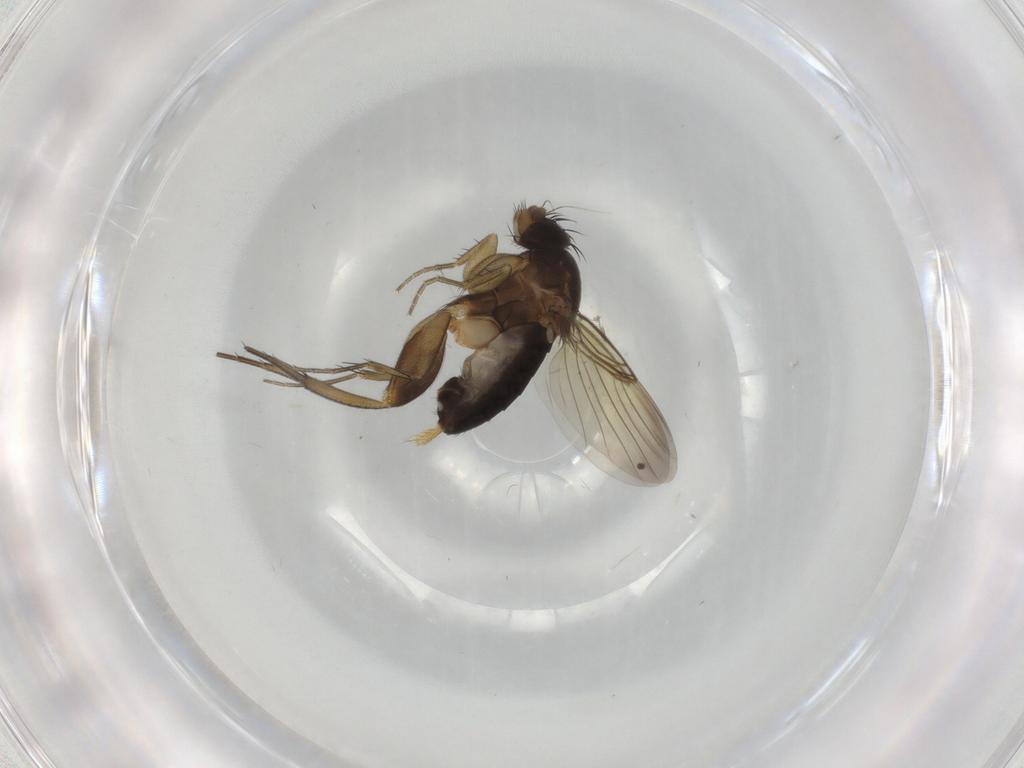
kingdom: Animalia
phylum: Arthropoda
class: Insecta
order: Diptera
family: Phoridae
